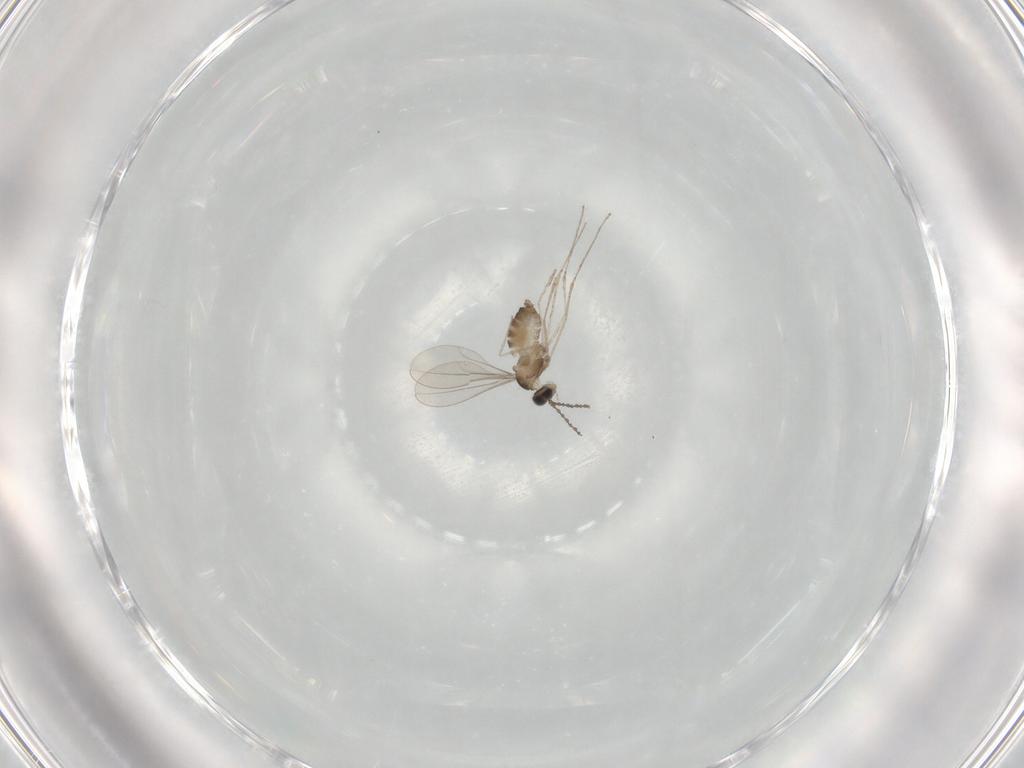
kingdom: Animalia
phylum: Arthropoda
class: Insecta
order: Diptera
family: Cecidomyiidae
